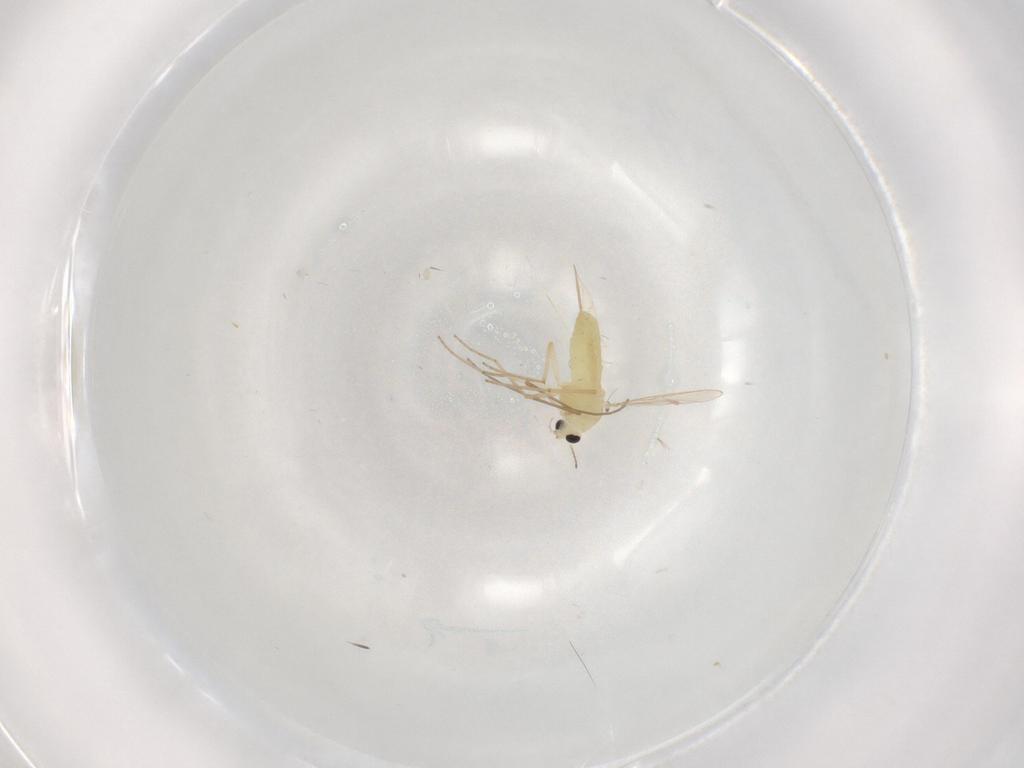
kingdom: Animalia
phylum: Arthropoda
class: Insecta
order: Diptera
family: Chironomidae
